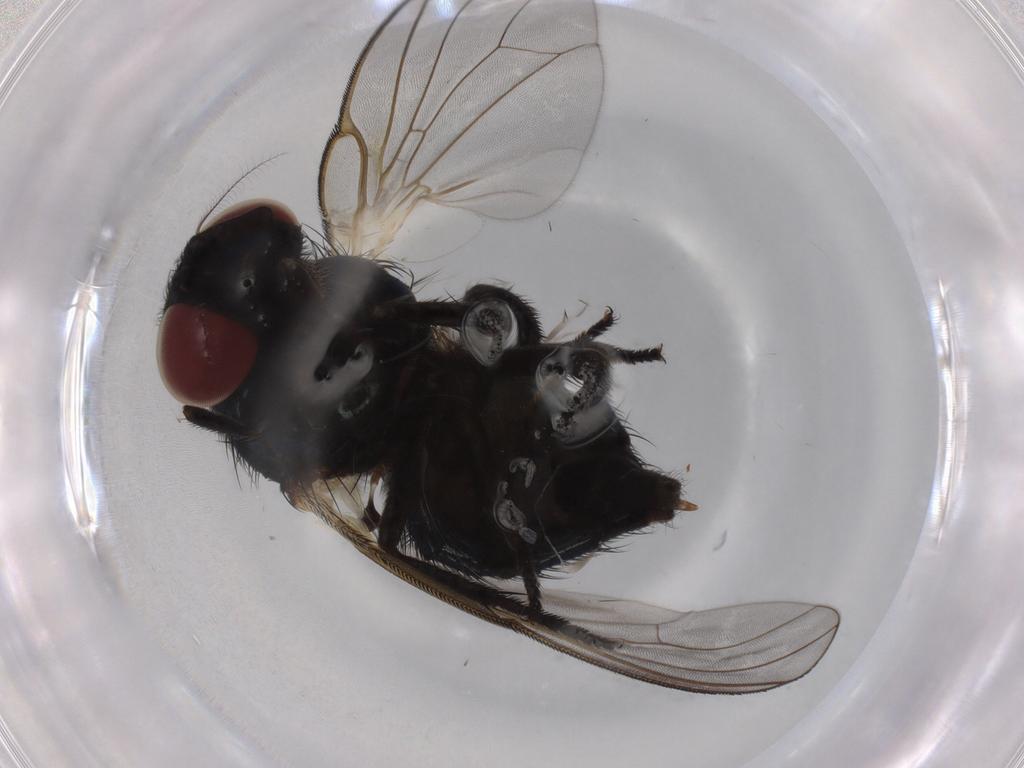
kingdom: Animalia
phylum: Arthropoda
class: Insecta
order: Diptera
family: Lonchaeidae
